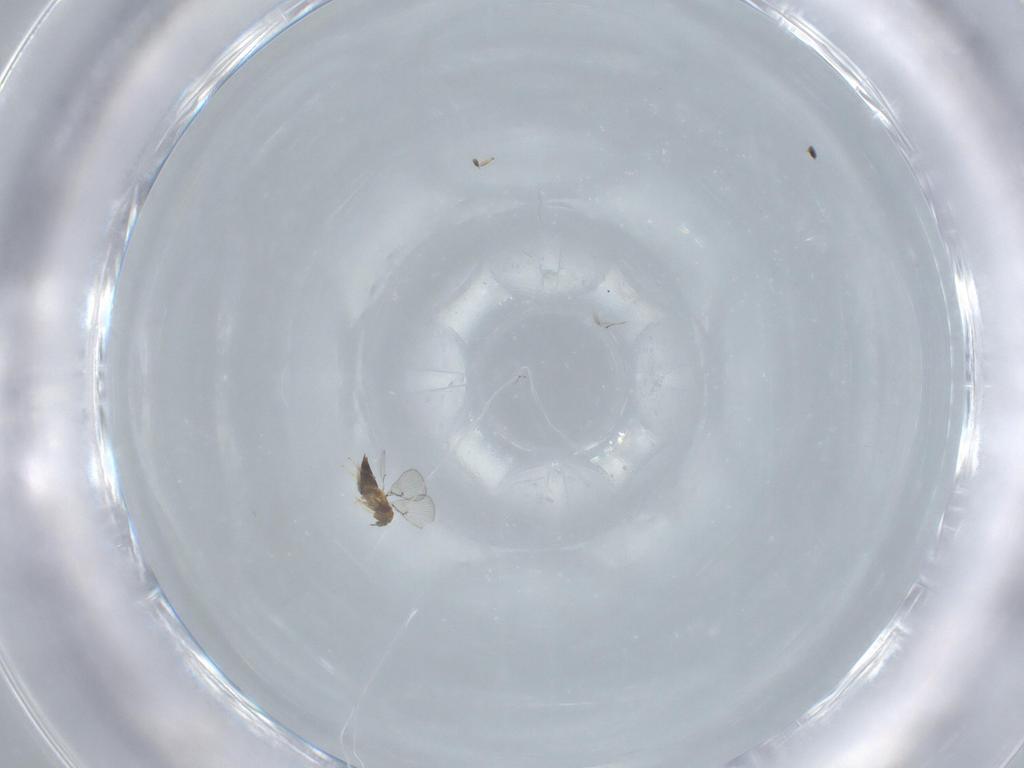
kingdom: Animalia
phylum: Arthropoda
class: Insecta
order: Hymenoptera
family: Trichogrammatidae
